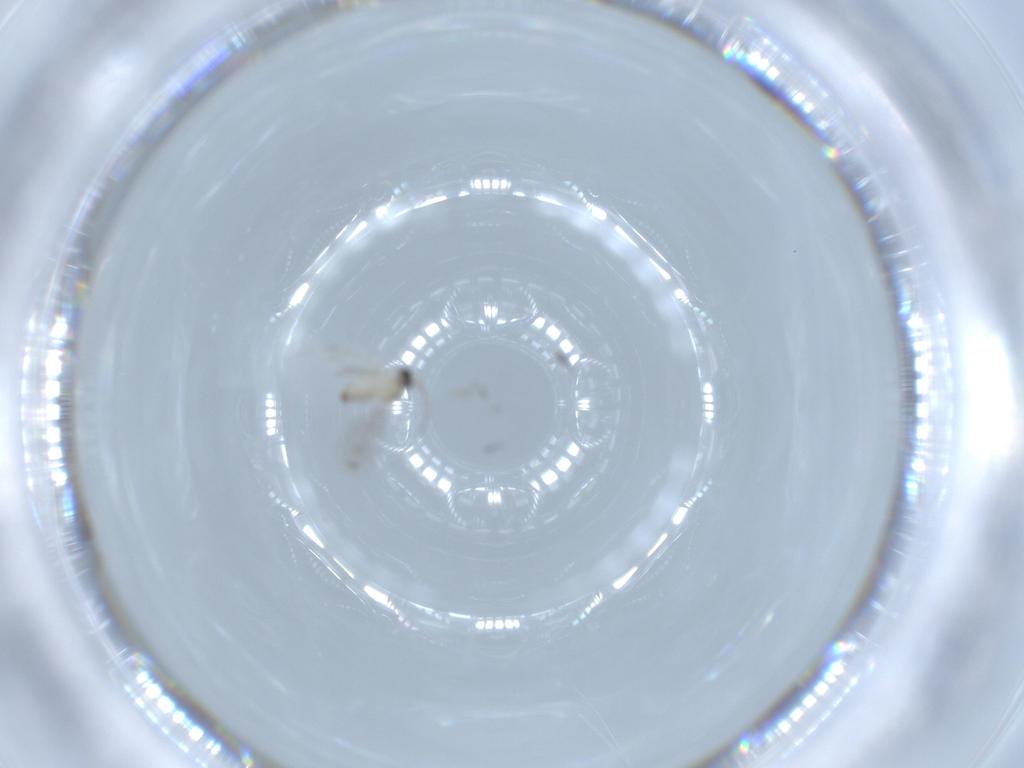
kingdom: Animalia
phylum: Arthropoda
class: Insecta
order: Diptera
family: Cecidomyiidae
